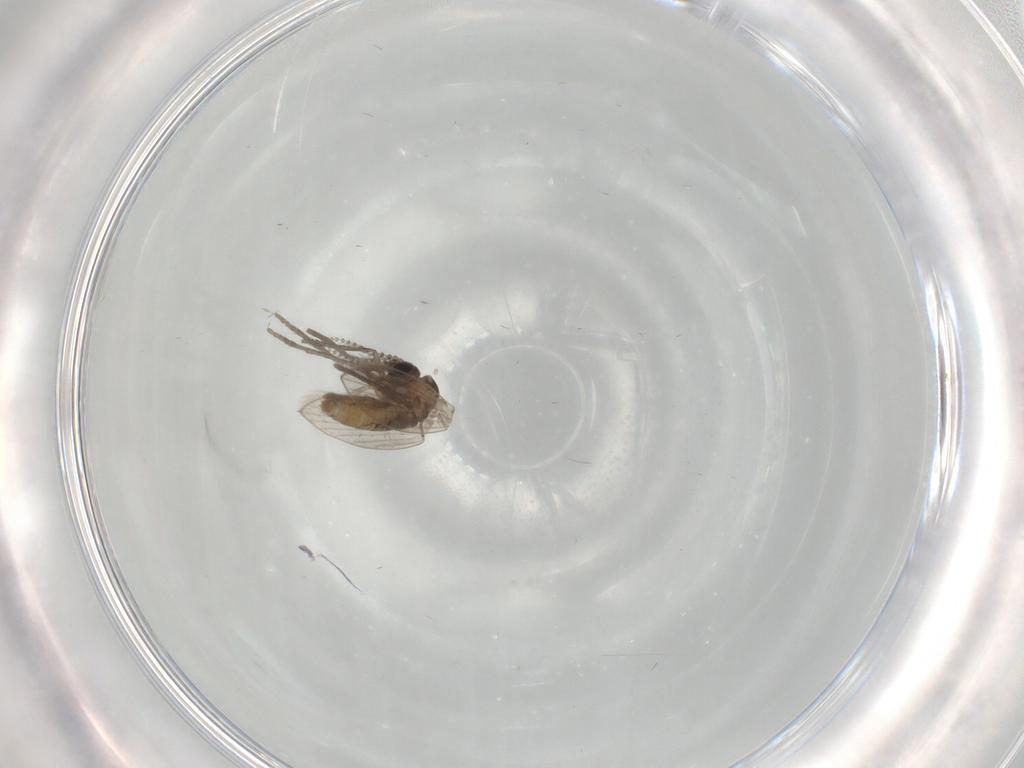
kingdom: Animalia
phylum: Arthropoda
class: Insecta
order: Diptera
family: Psychodidae
